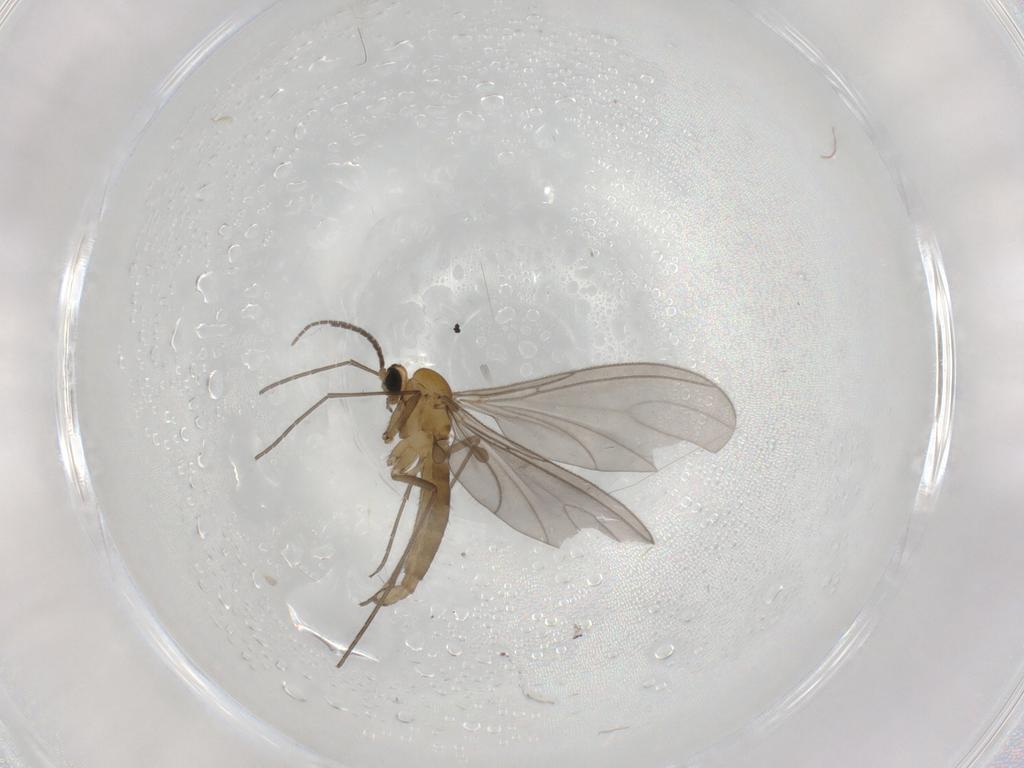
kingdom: Animalia
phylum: Arthropoda
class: Insecta
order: Diptera
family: Sciaridae
